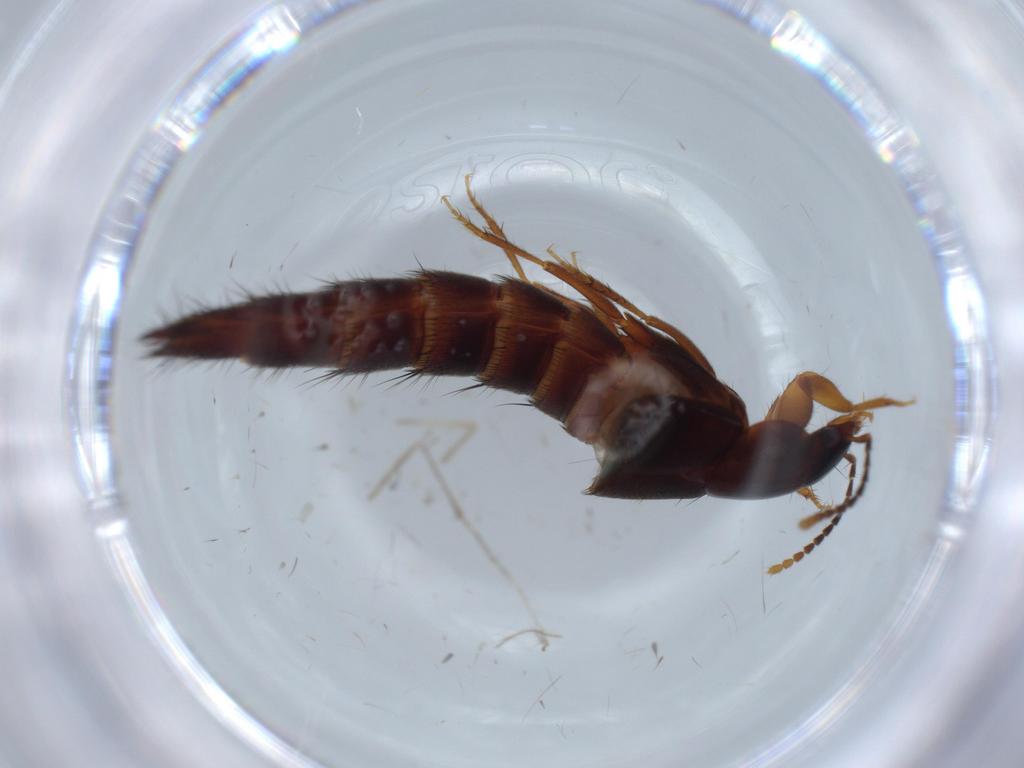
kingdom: Animalia
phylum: Arthropoda
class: Insecta
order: Coleoptera
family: Staphylinidae
